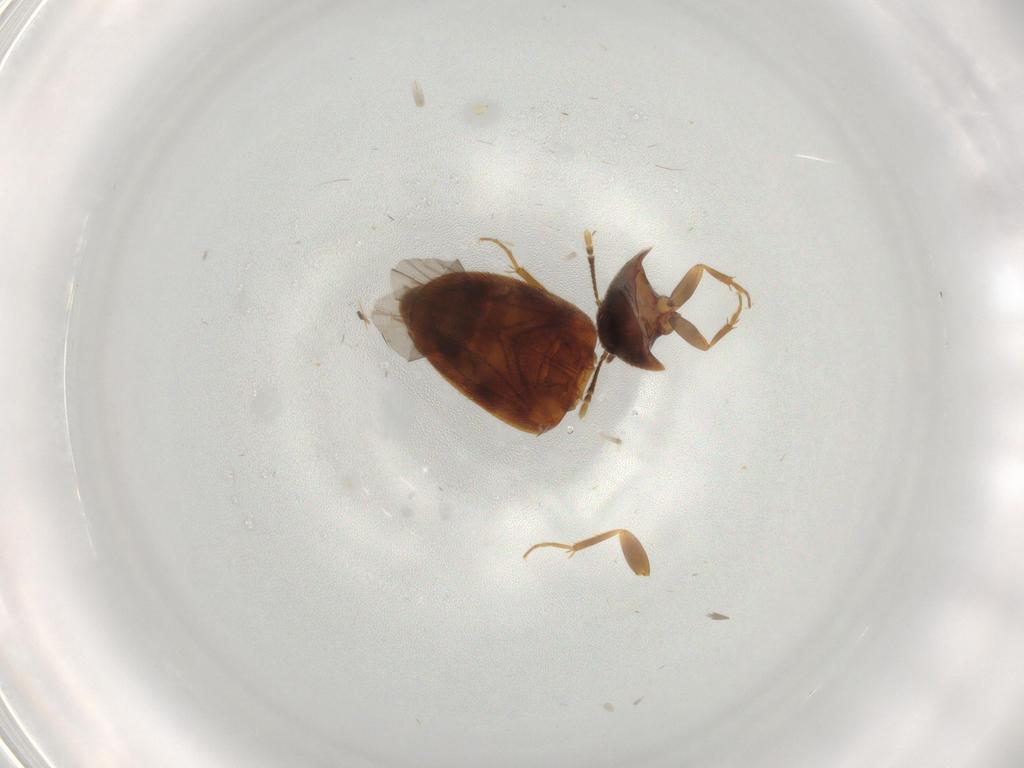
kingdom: Animalia
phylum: Arthropoda
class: Insecta
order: Coleoptera
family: Mycetophagidae
